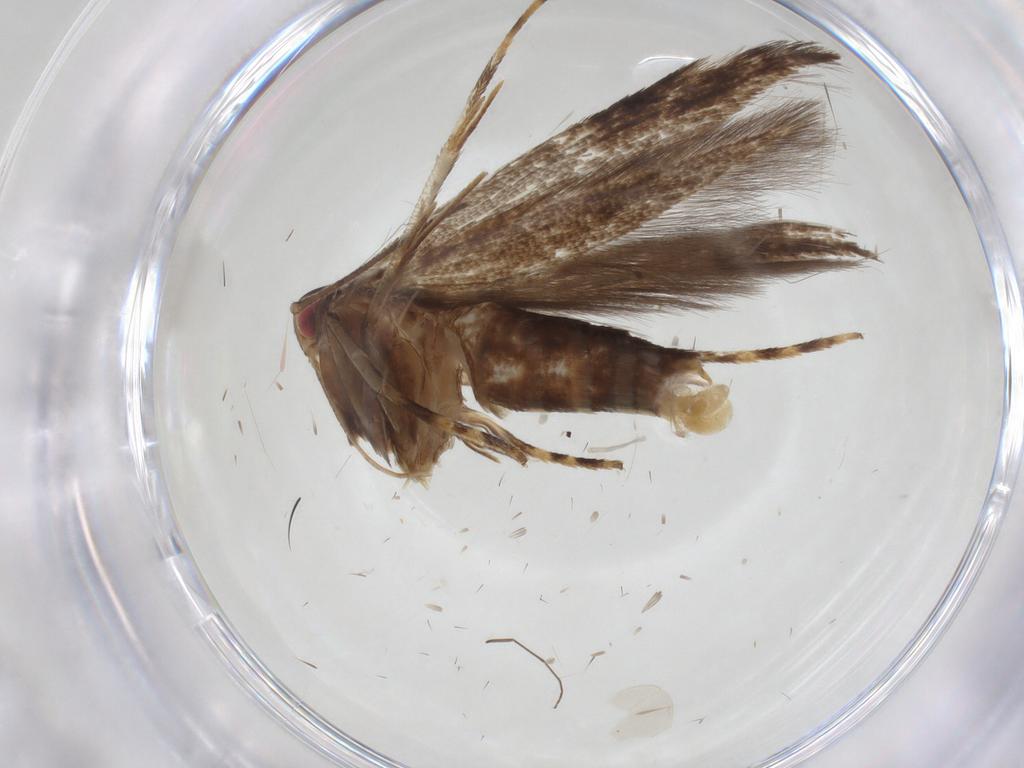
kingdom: Animalia
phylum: Arthropoda
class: Insecta
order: Lepidoptera
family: Cosmopterigidae
